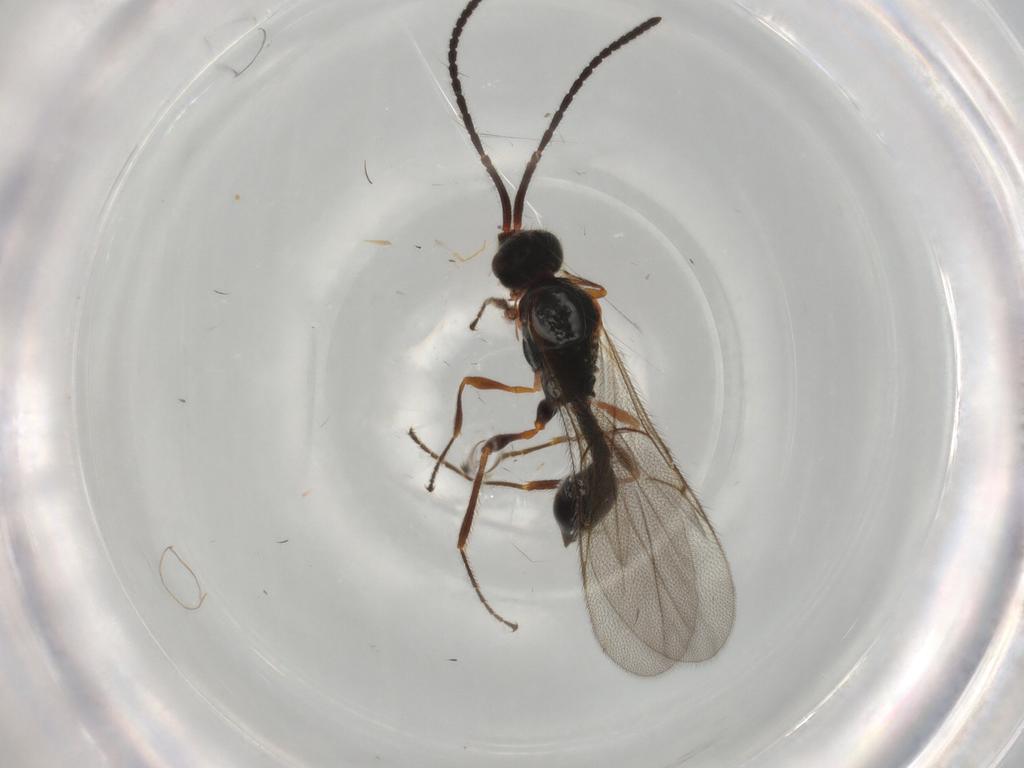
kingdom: Animalia
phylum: Arthropoda
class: Insecta
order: Hymenoptera
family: Diapriidae
